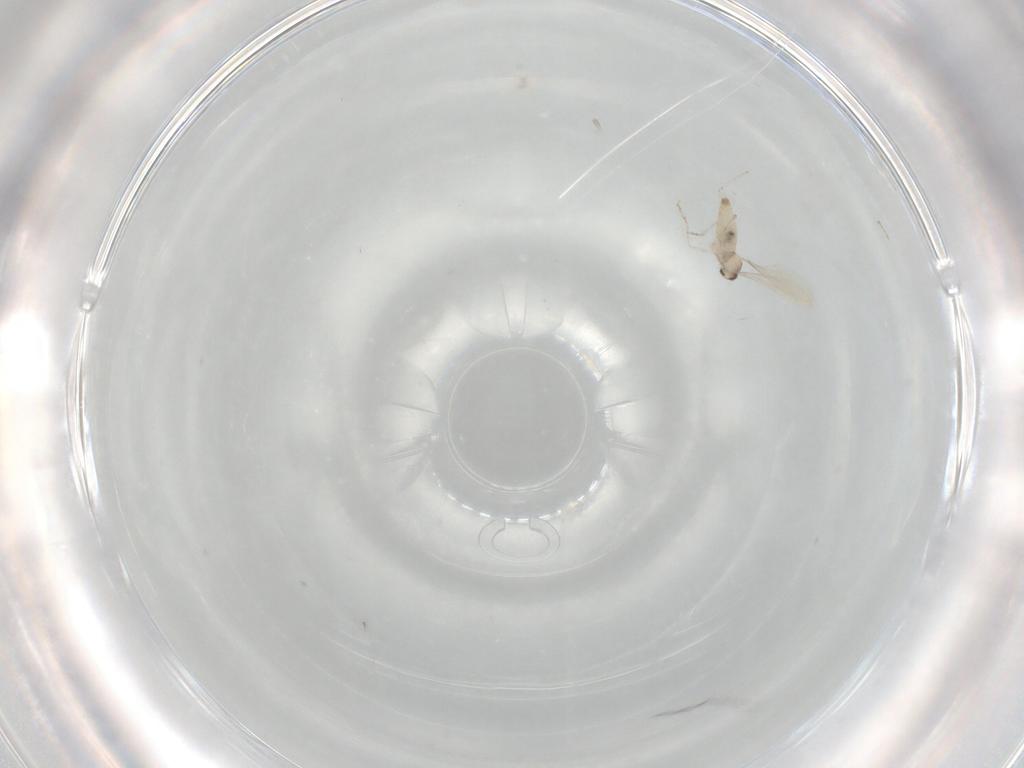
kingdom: Animalia
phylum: Arthropoda
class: Insecta
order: Diptera
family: Cecidomyiidae
